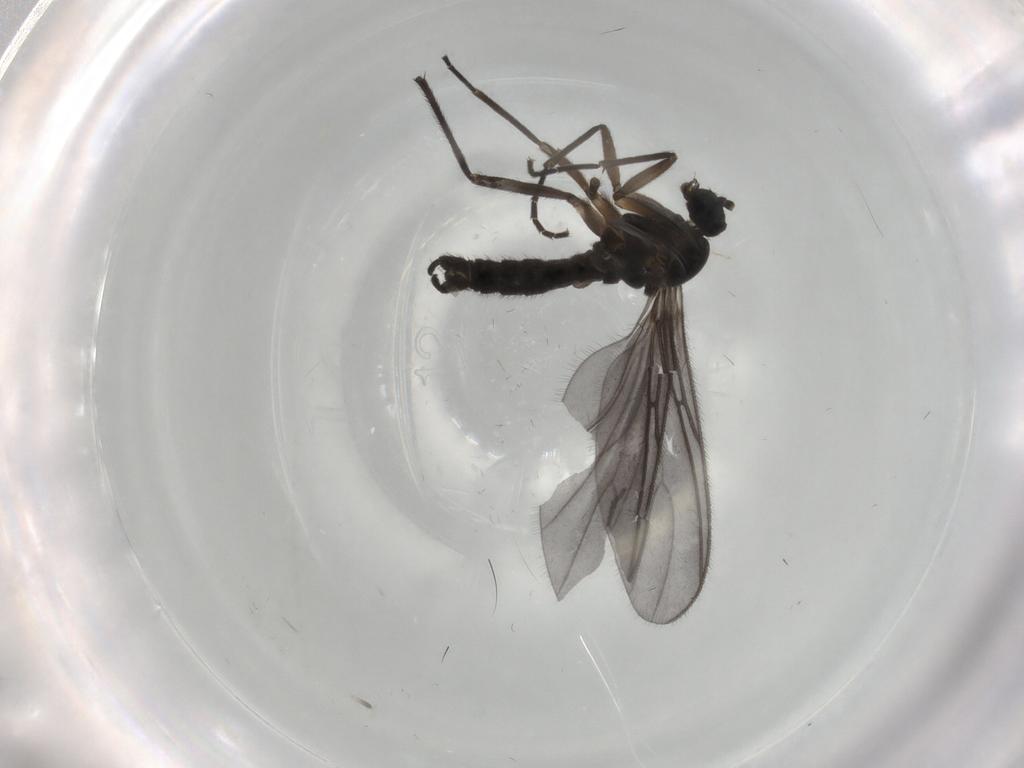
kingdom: Animalia
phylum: Arthropoda
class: Insecta
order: Diptera
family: Sciaridae
